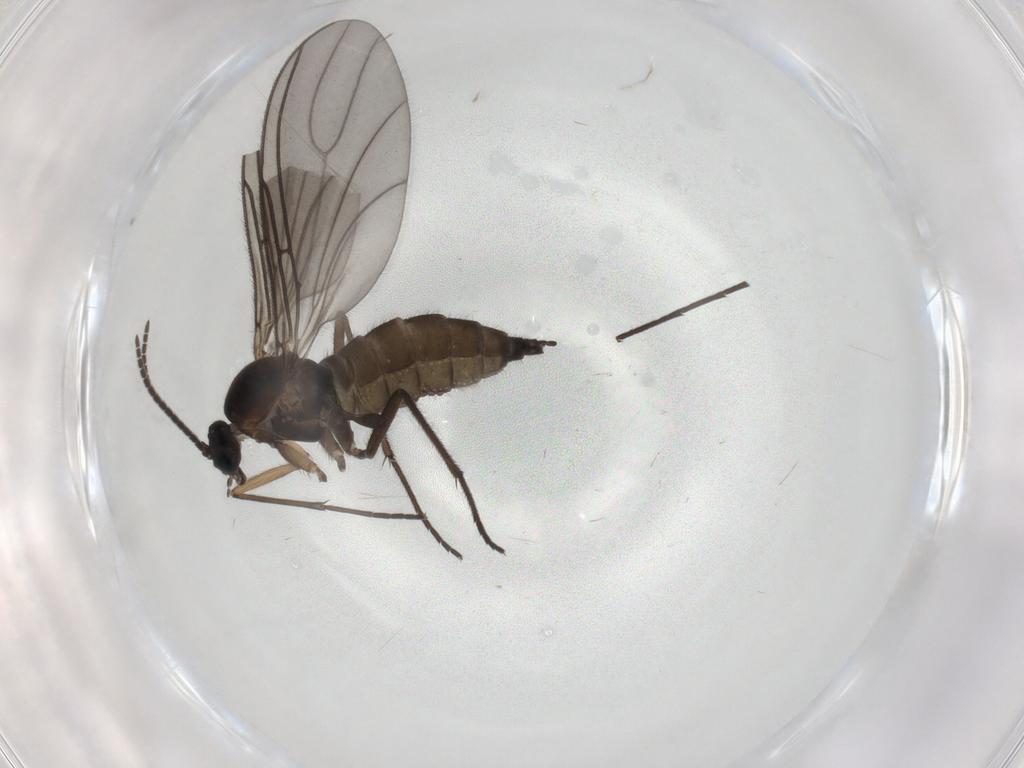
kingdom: Animalia
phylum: Arthropoda
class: Insecta
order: Diptera
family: Sciaridae
